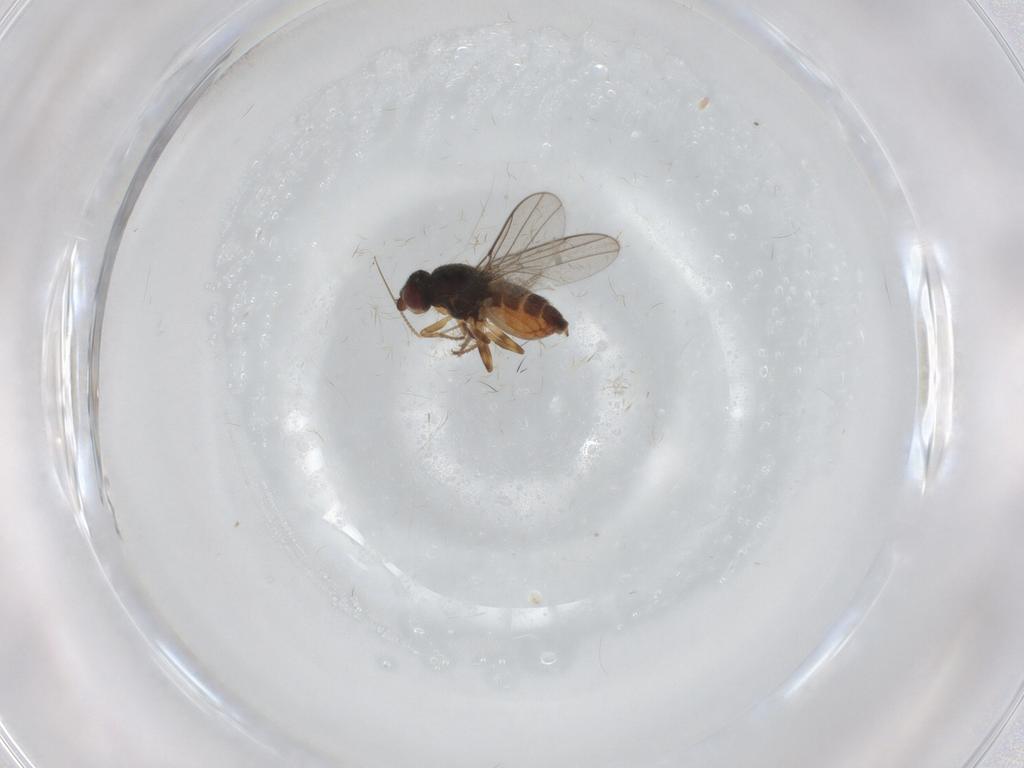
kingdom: Animalia
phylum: Arthropoda
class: Insecta
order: Diptera
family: Chloropidae
